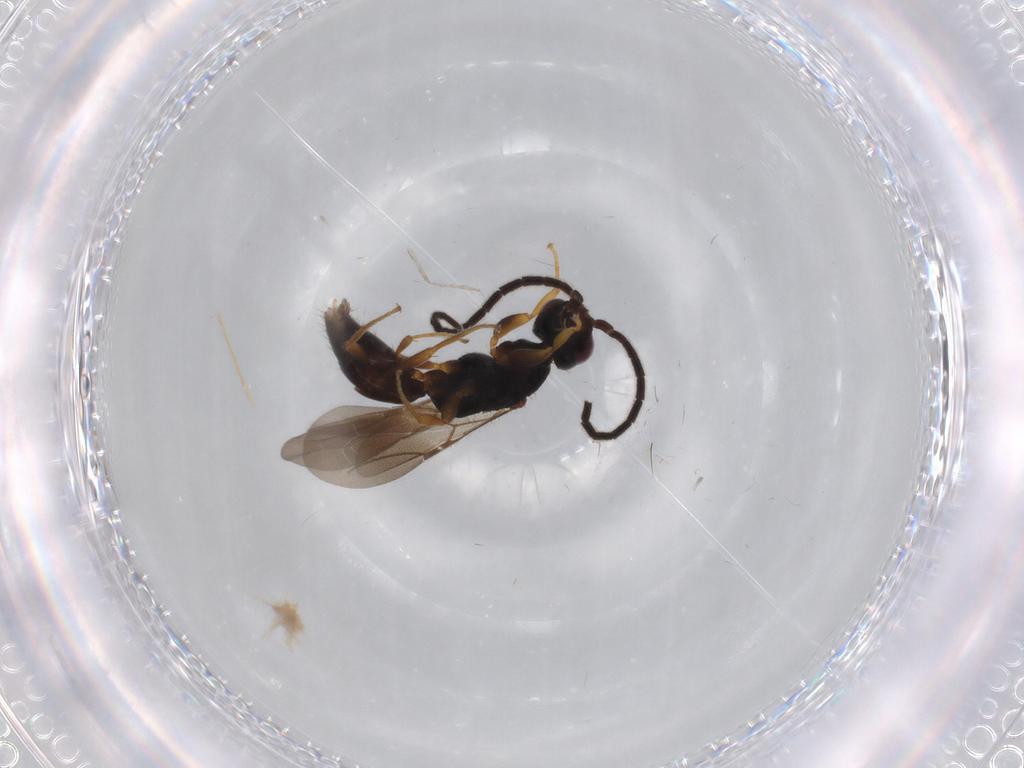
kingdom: Animalia
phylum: Arthropoda
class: Insecta
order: Hymenoptera
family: Bethylidae
